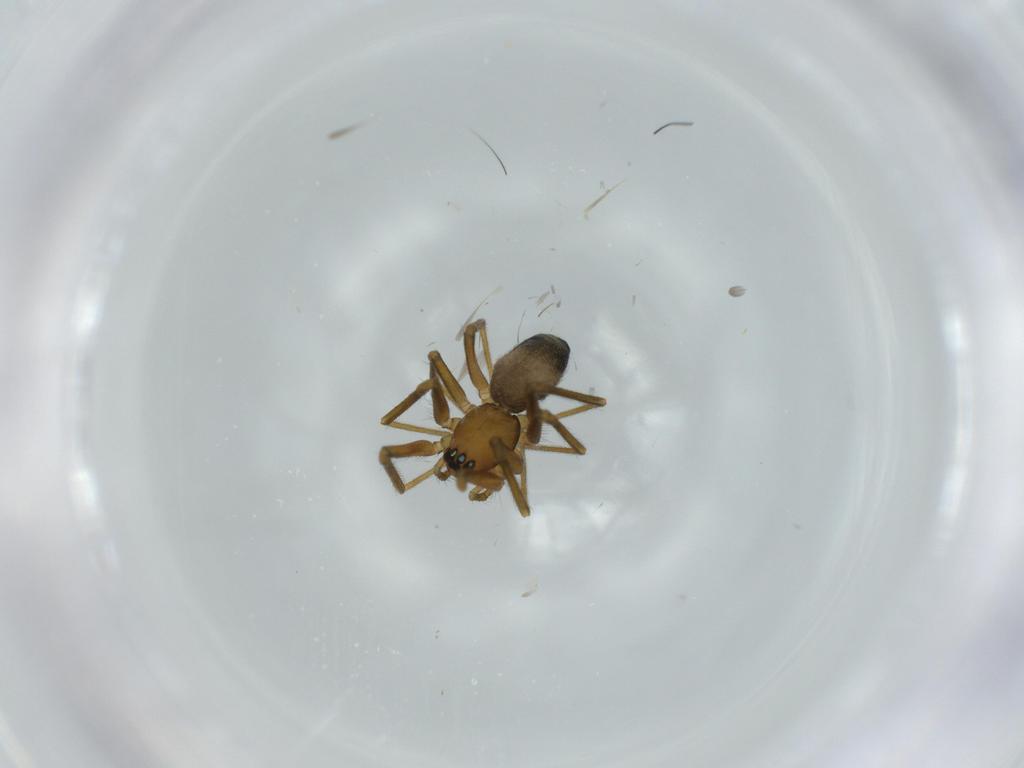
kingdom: Animalia
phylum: Arthropoda
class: Arachnida
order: Araneae
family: Linyphiidae
